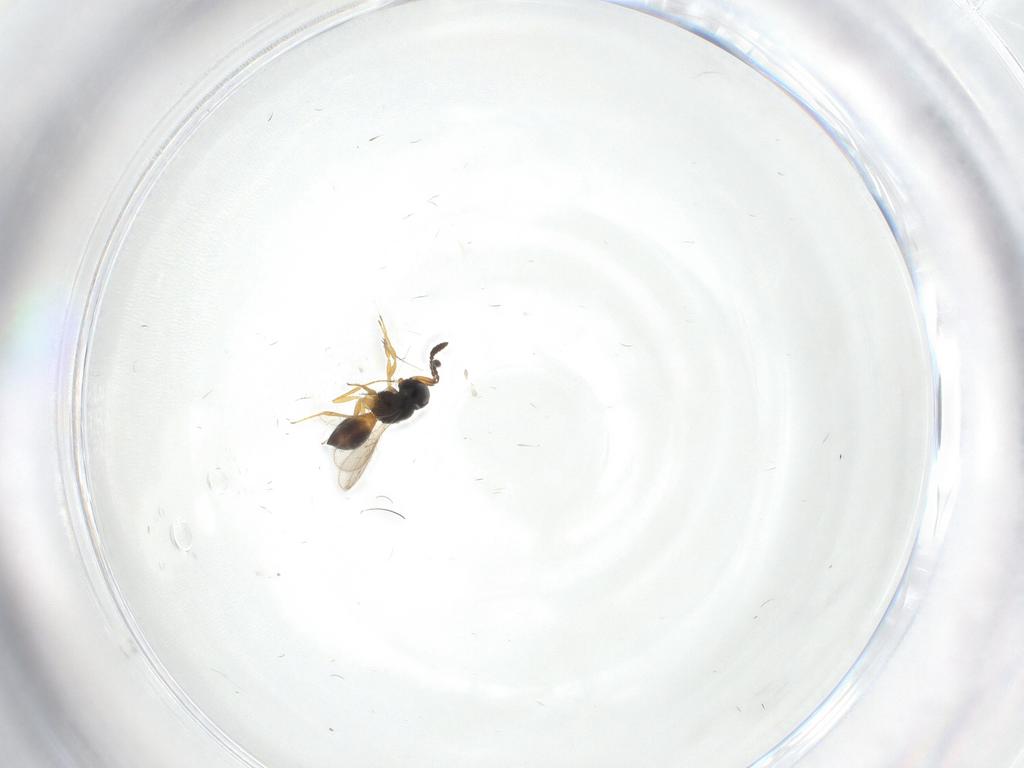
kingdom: Animalia
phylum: Arthropoda
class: Insecta
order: Hymenoptera
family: Scelionidae
